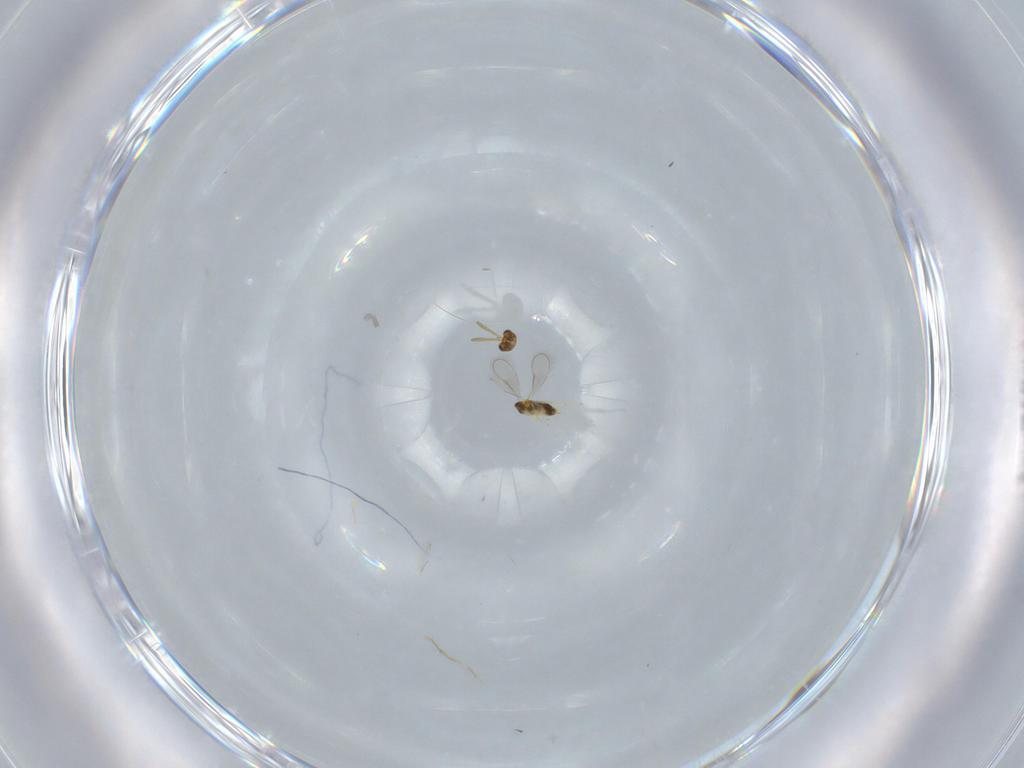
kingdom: Animalia
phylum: Arthropoda
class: Insecta
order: Hymenoptera
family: Aphelinidae
